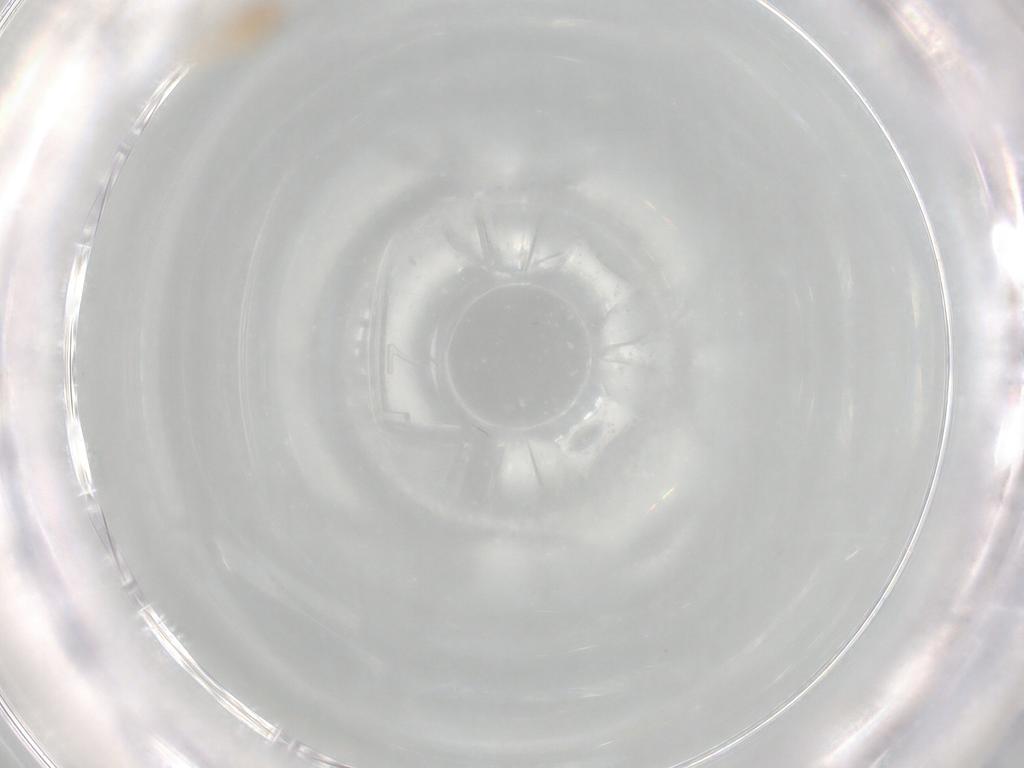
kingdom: Animalia
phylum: Arthropoda
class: Insecta
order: Hemiptera
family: Aleyrodidae
